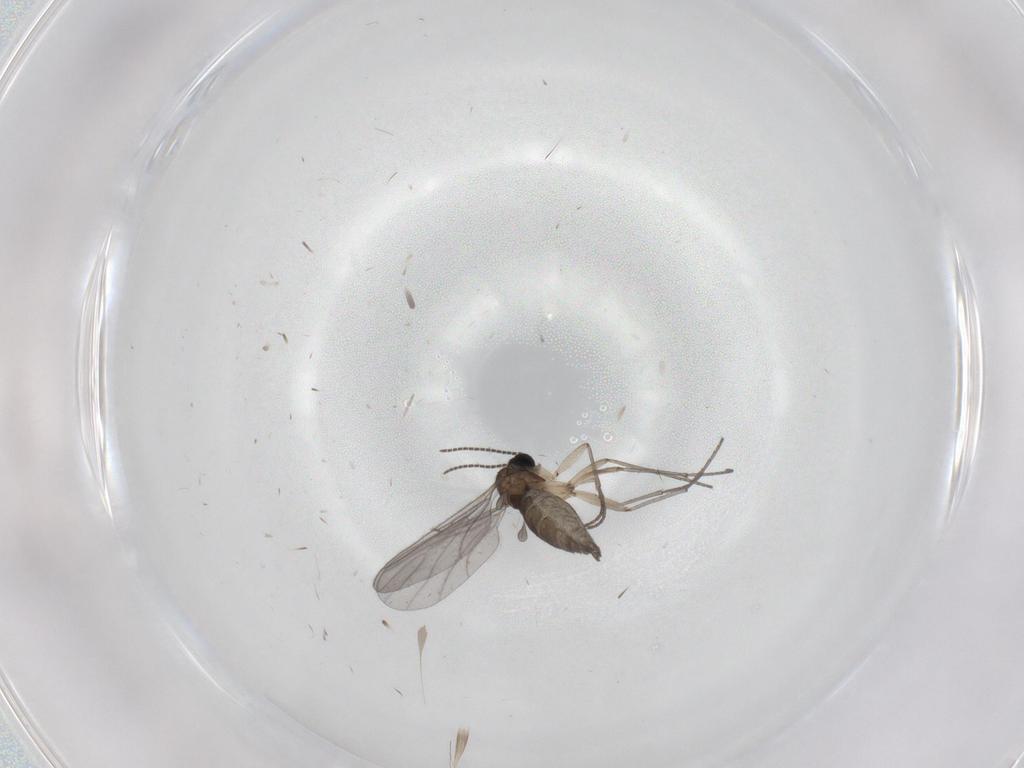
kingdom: Animalia
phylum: Arthropoda
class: Insecta
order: Diptera
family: Sciaridae
